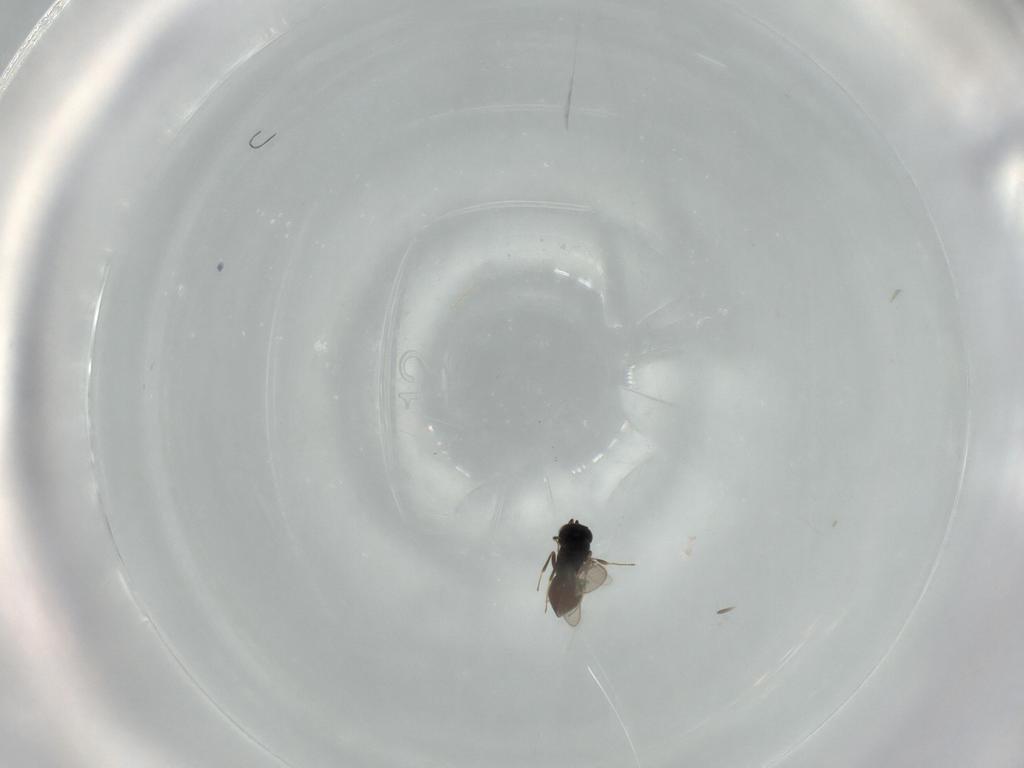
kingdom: Animalia
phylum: Arthropoda
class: Insecta
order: Hymenoptera
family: Scelionidae
